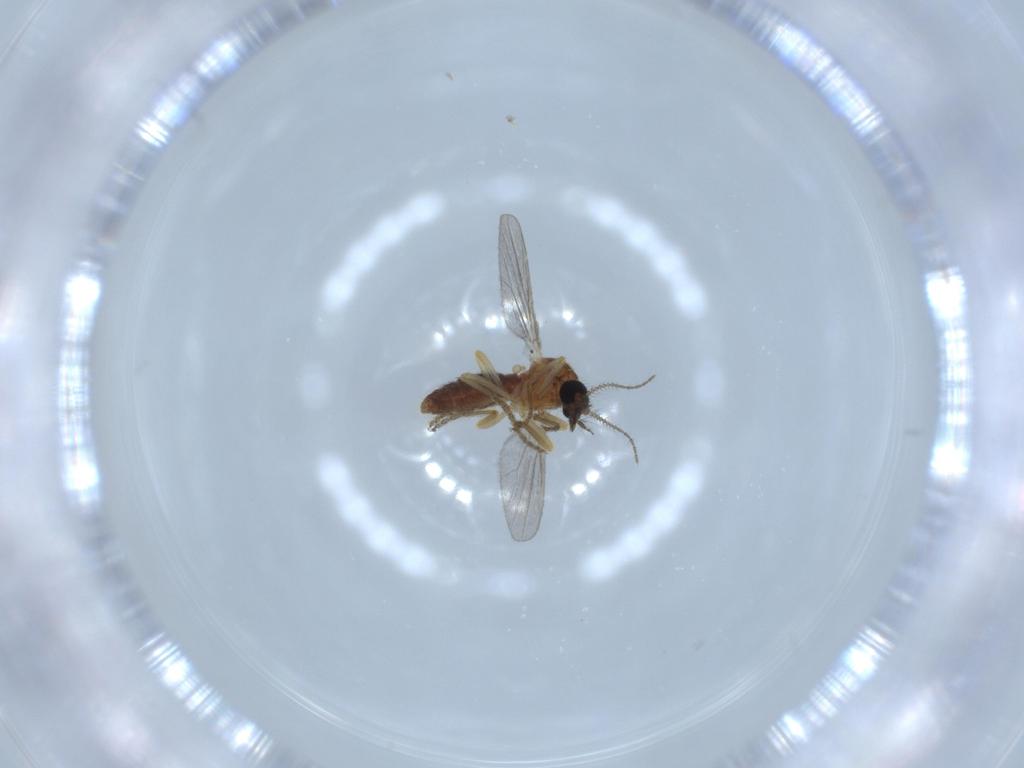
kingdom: Animalia
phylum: Arthropoda
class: Insecta
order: Diptera
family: Ceratopogonidae
